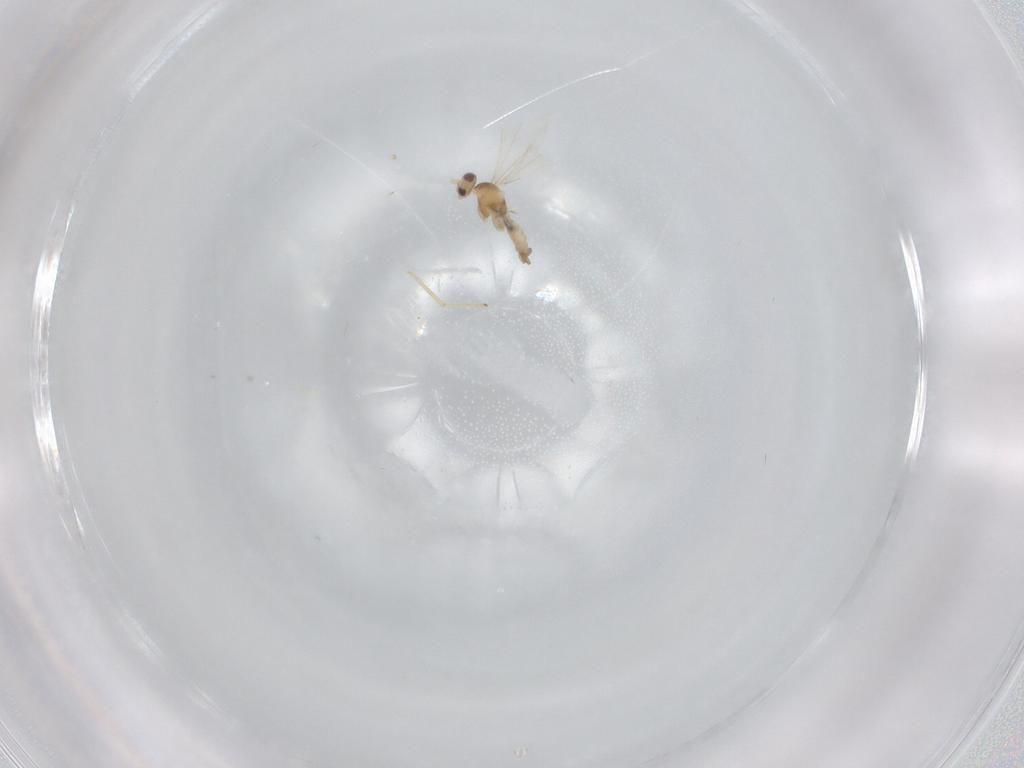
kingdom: Animalia
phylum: Arthropoda
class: Insecta
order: Diptera
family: Cecidomyiidae
